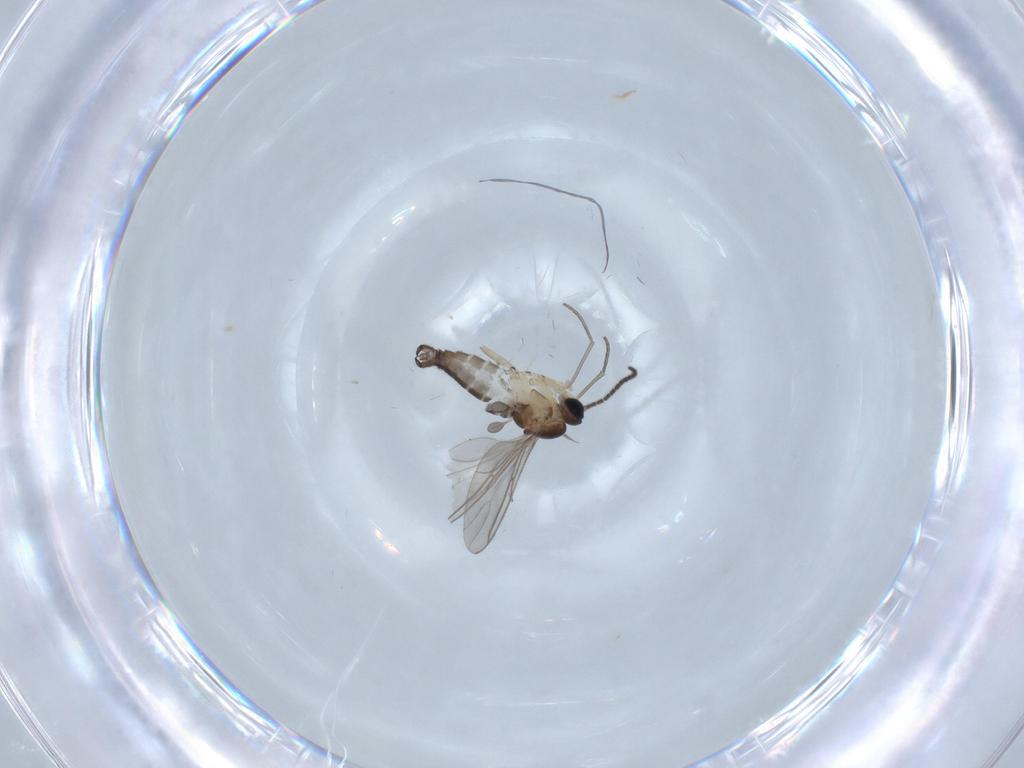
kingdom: Animalia
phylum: Arthropoda
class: Insecta
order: Diptera
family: Sciaridae
